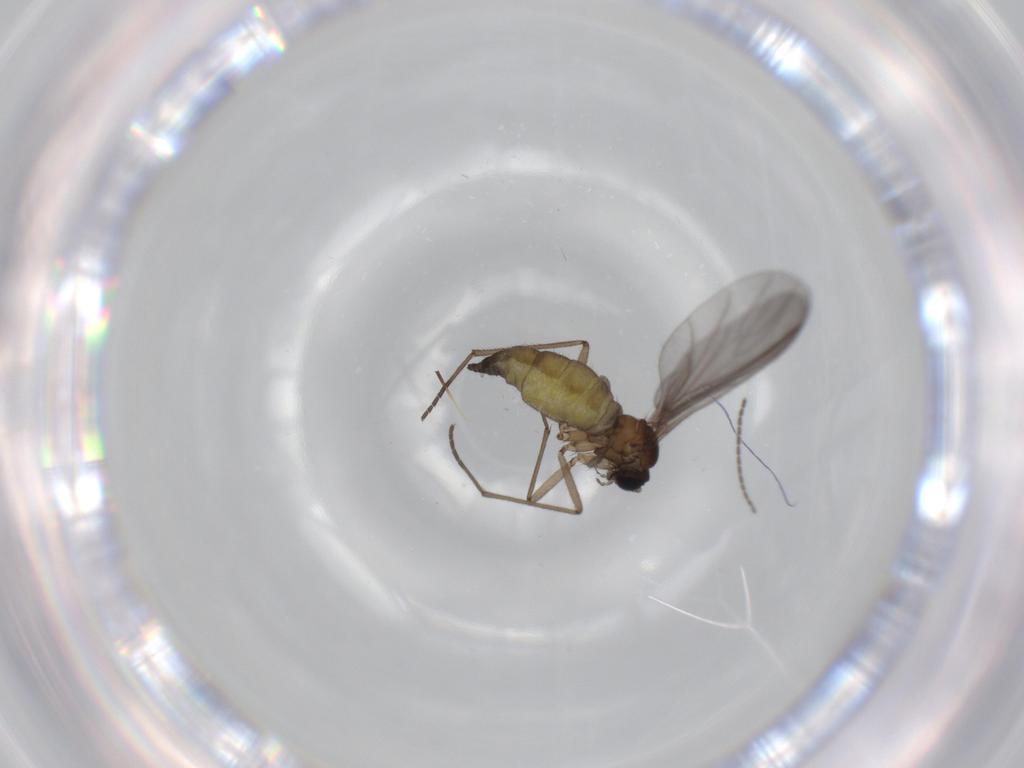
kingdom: Animalia
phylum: Arthropoda
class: Insecta
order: Diptera
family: Sciaridae
